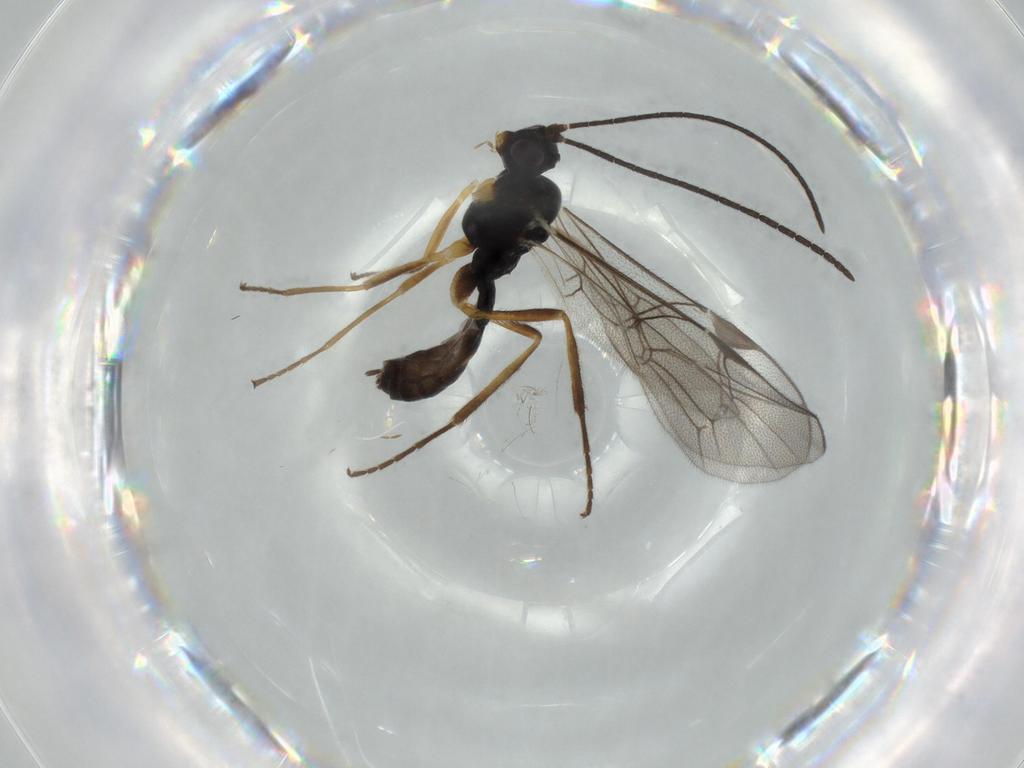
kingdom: Animalia
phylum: Arthropoda
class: Insecta
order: Hymenoptera
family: Ichneumonidae
